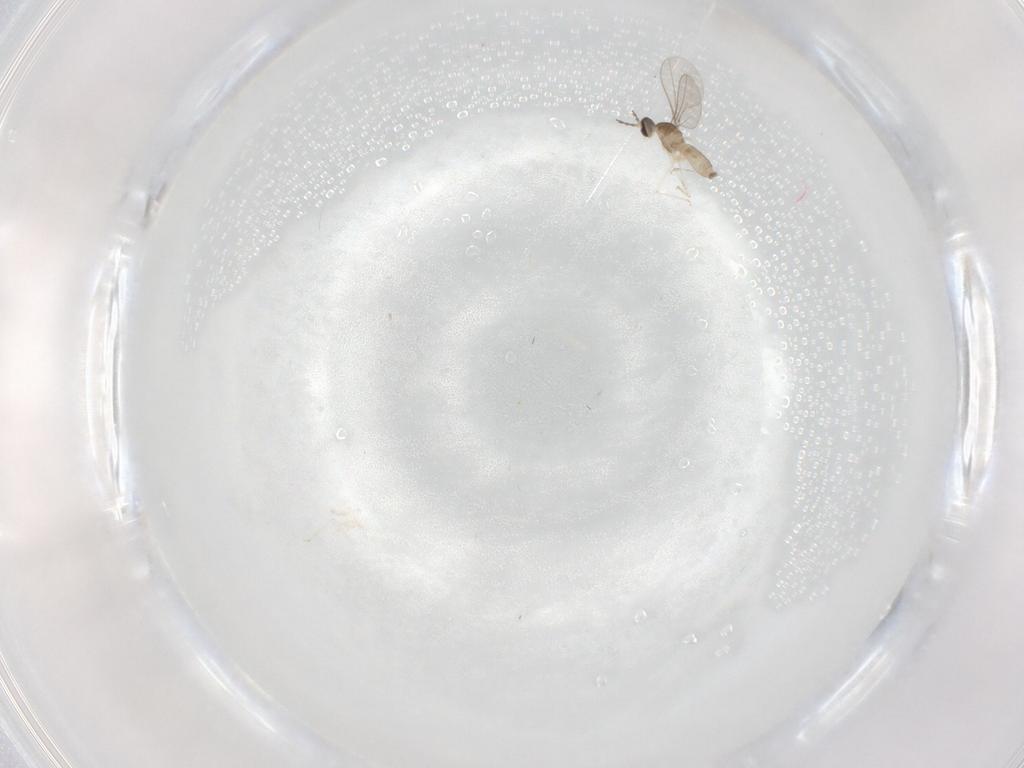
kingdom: Animalia
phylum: Arthropoda
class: Insecta
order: Diptera
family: Cecidomyiidae
